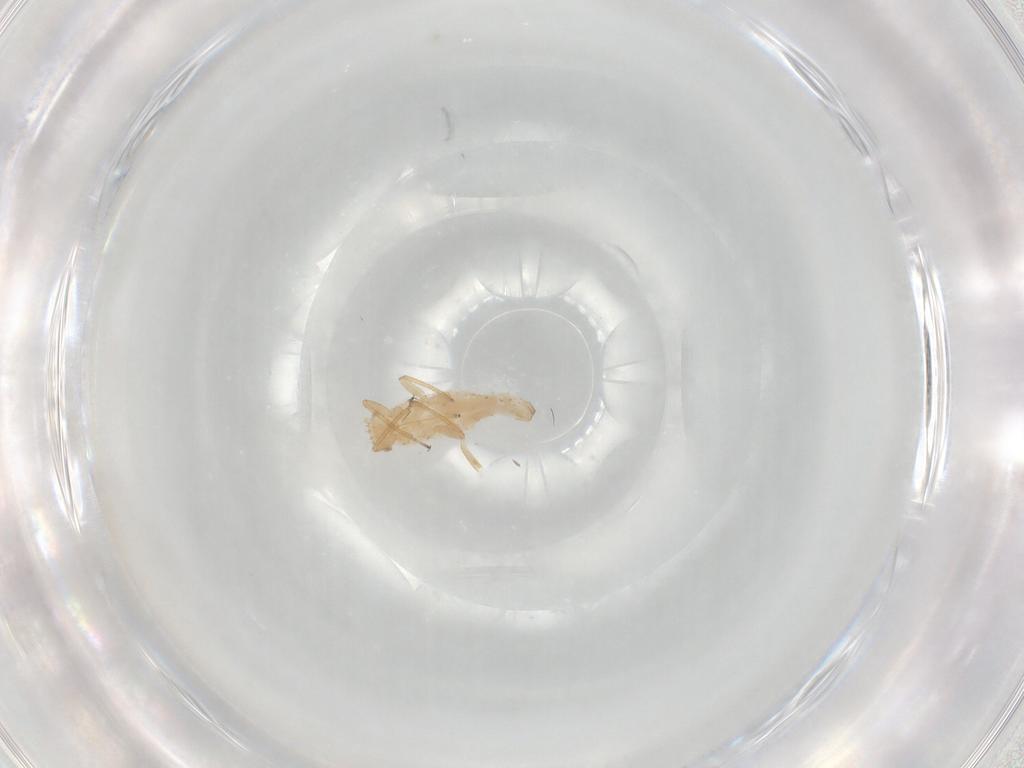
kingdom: Animalia
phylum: Arthropoda
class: Insecta
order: Hemiptera
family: Aphididae
